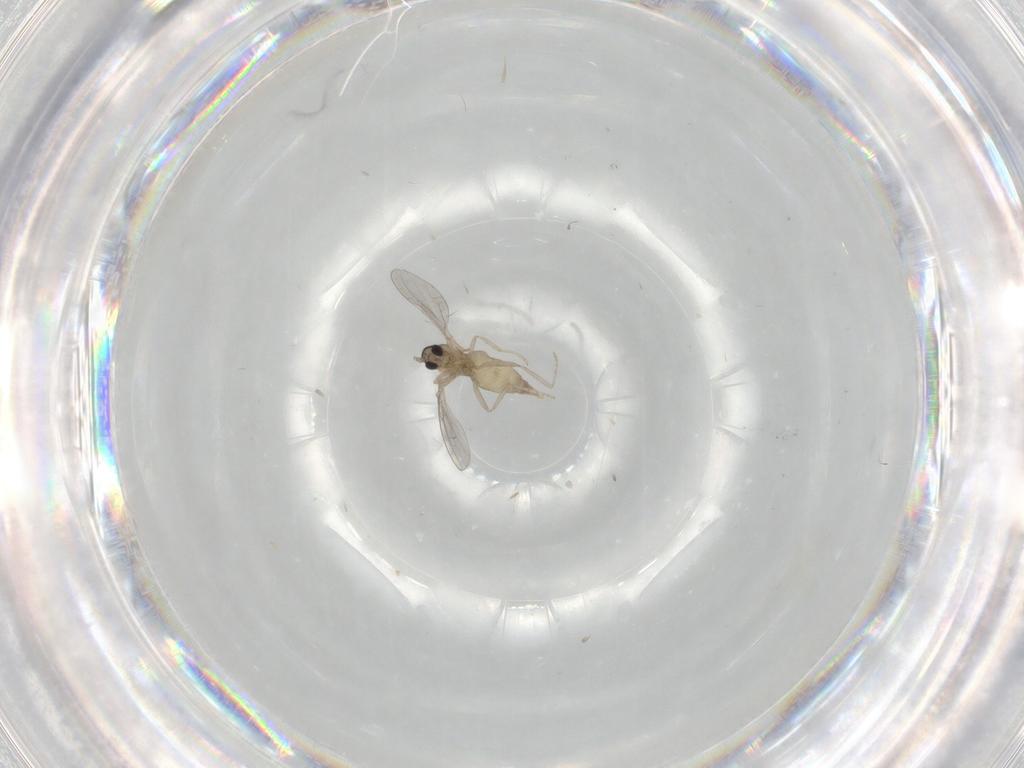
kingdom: Animalia
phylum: Arthropoda
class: Insecta
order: Diptera
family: Cecidomyiidae
